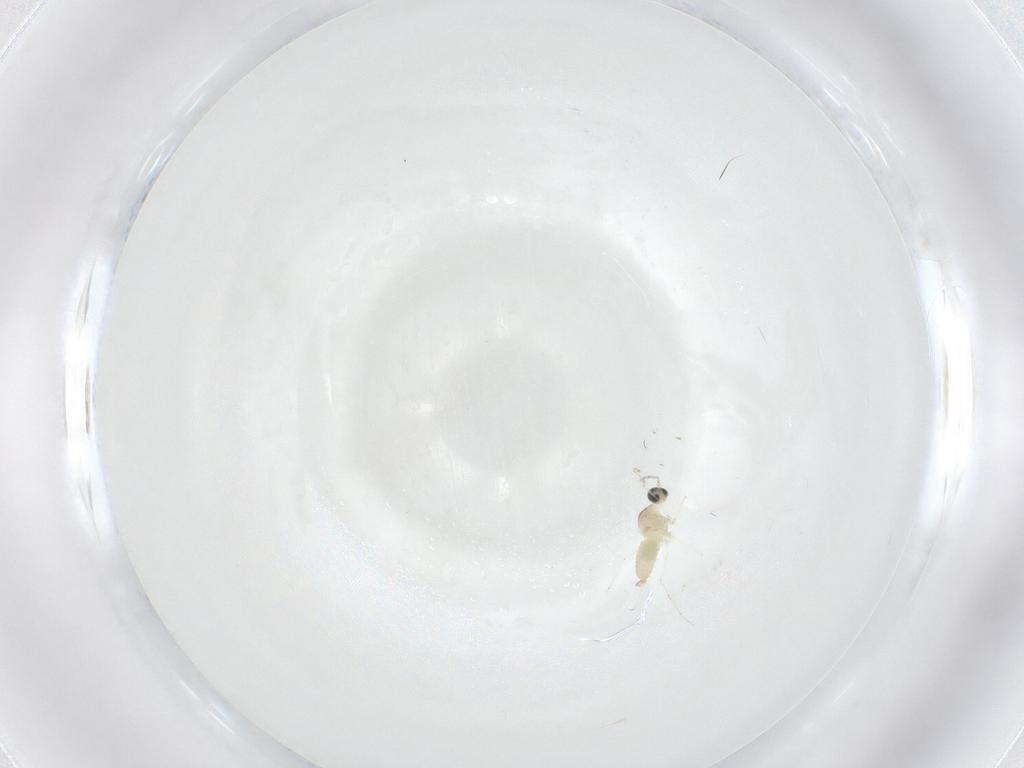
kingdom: Animalia
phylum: Arthropoda
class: Insecta
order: Diptera
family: Cecidomyiidae
